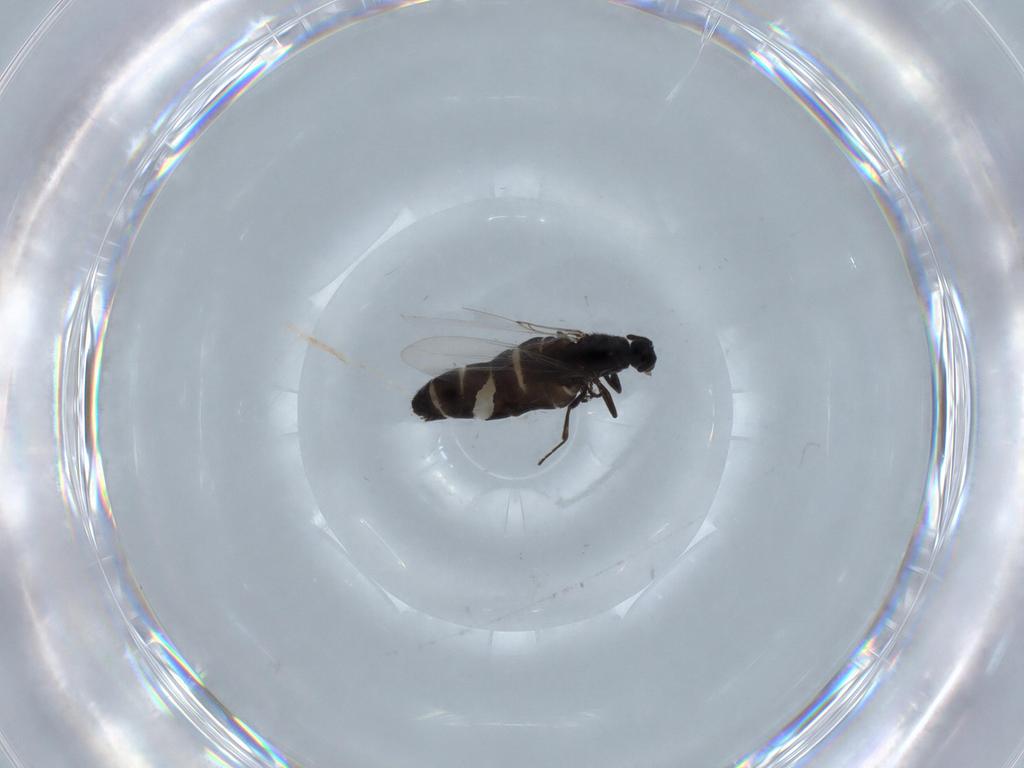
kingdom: Animalia
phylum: Arthropoda
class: Insecta
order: Diptera
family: Scatopsidae
